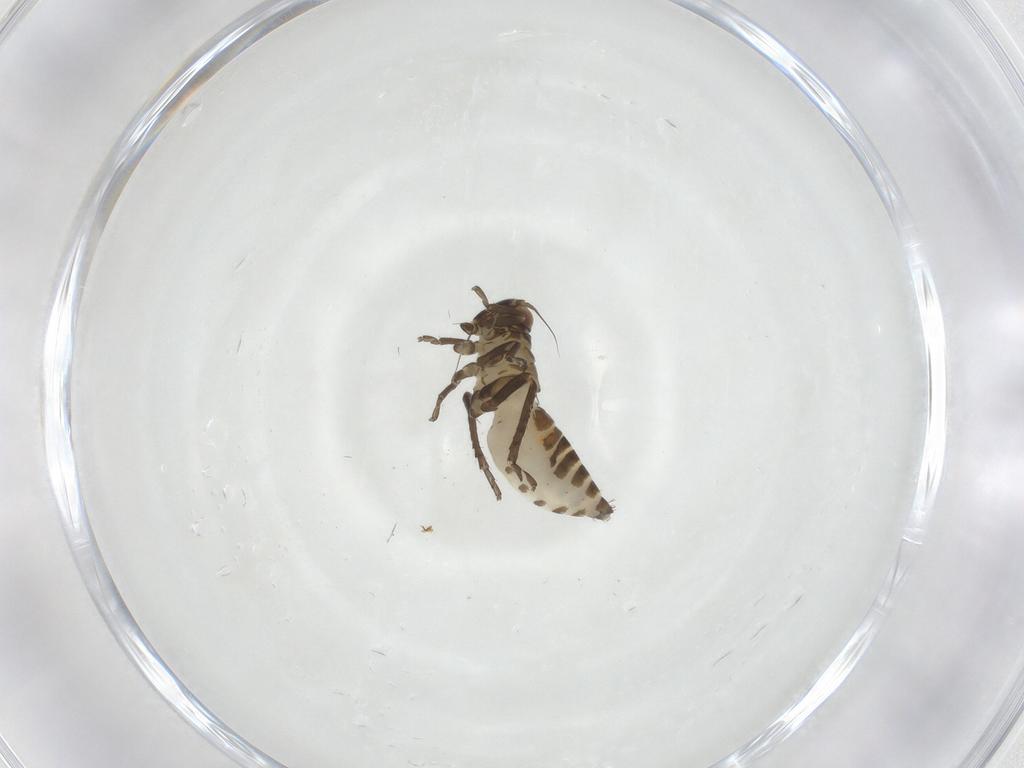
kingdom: Animalia
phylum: Arthropoda
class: Insecta
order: Hemiptera
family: Cicadellidae
